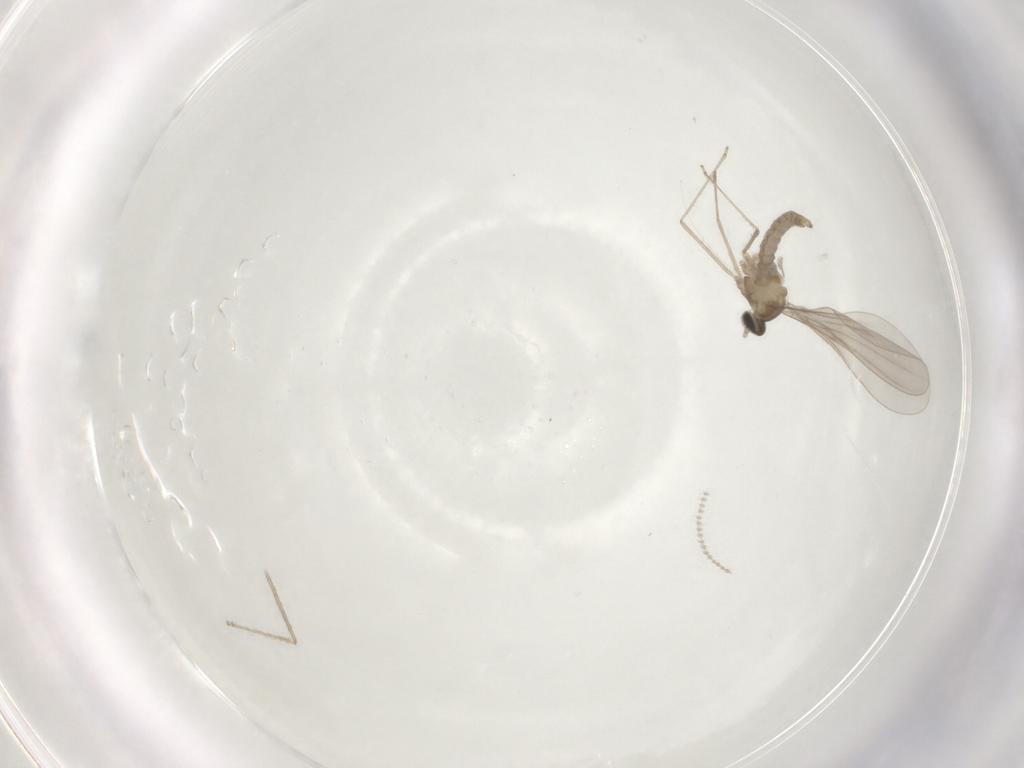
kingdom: Animalia
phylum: Arthropoda
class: Insecta
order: Diptera
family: Cecidomyiidae
